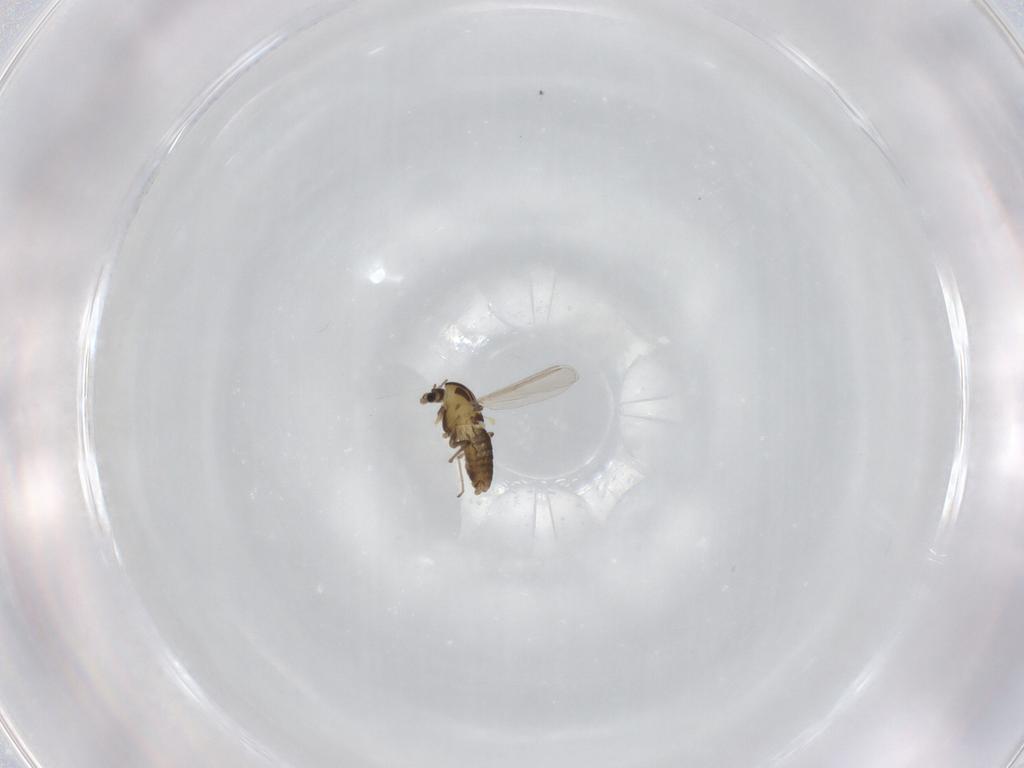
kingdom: Animalia
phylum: Arthropoda
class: Insecta
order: Diptera
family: Chironomidae
